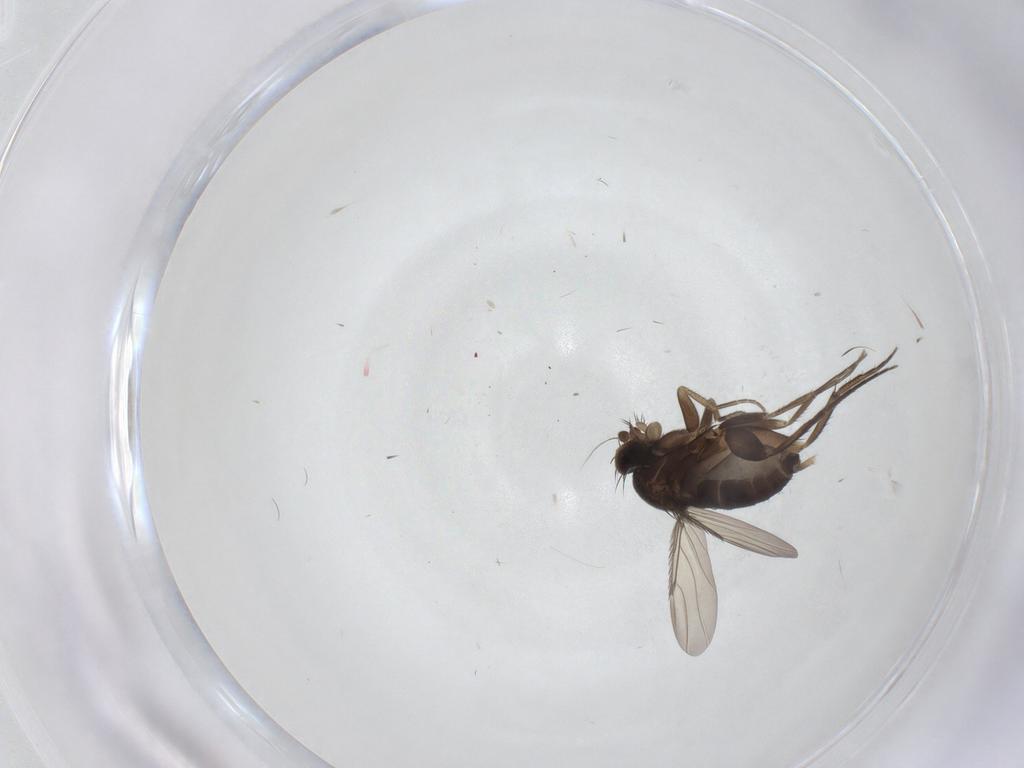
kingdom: Animalia
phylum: Arthropoda
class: Insecta
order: Diptera
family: Phoridae
